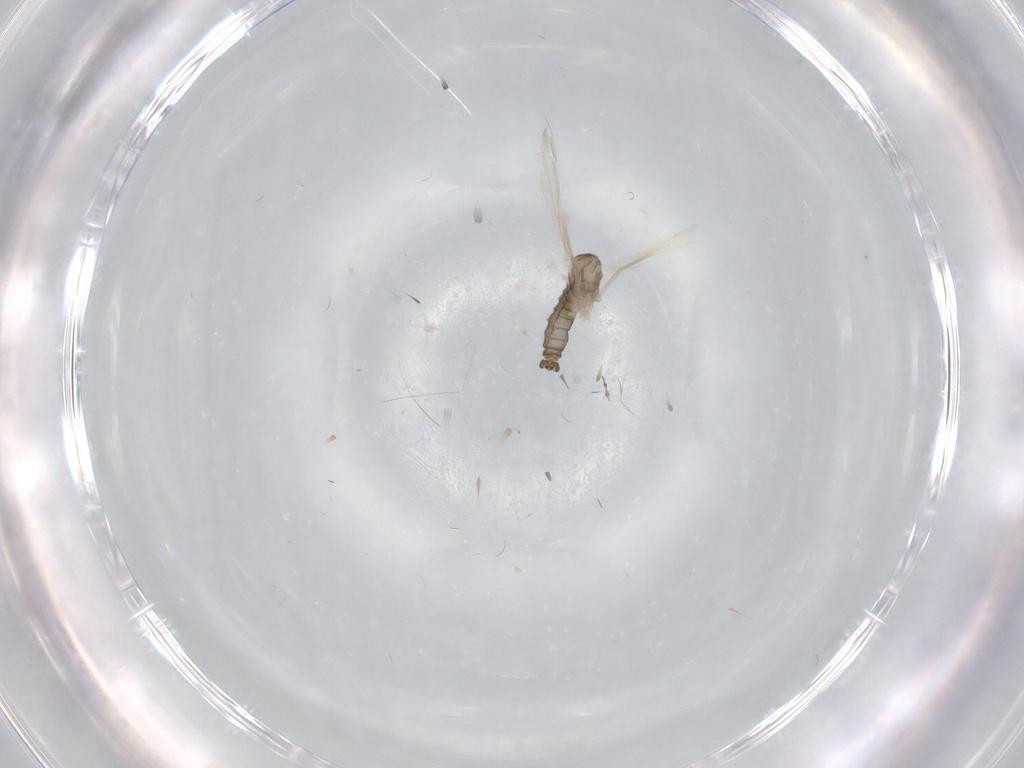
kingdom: Animalia
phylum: Arthropoda
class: Insecta
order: Diptera
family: Cecidomyiidae
